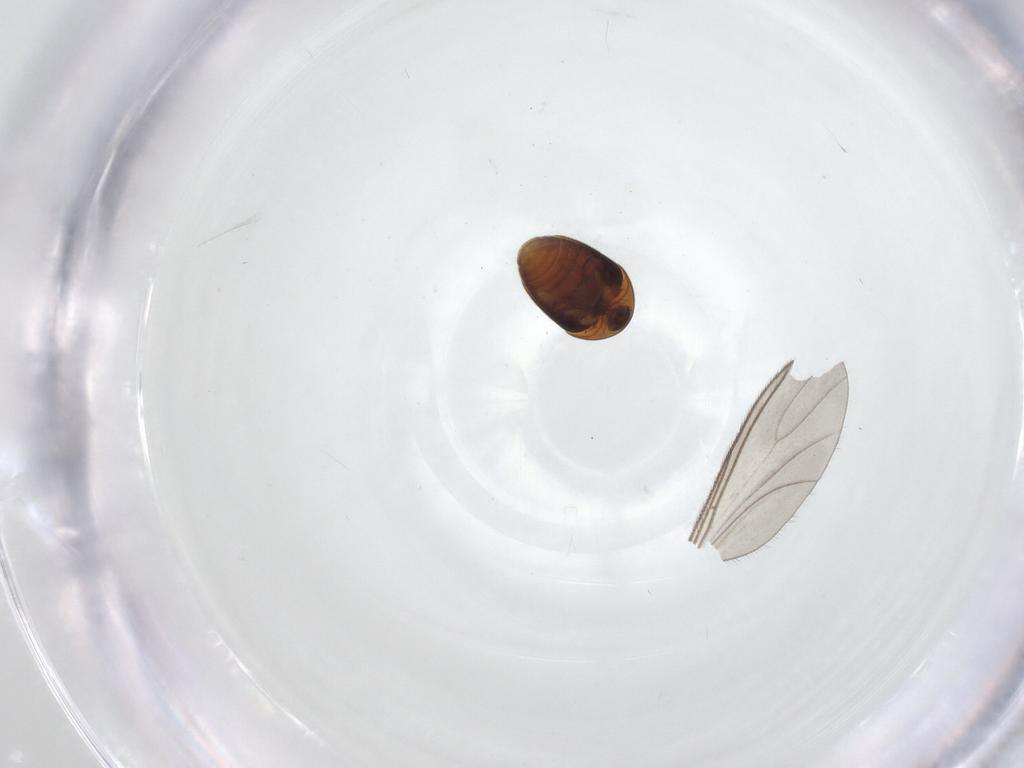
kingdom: Animalia
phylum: Arthropoda
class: Insecta
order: Coleoptera
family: Corylophidae
